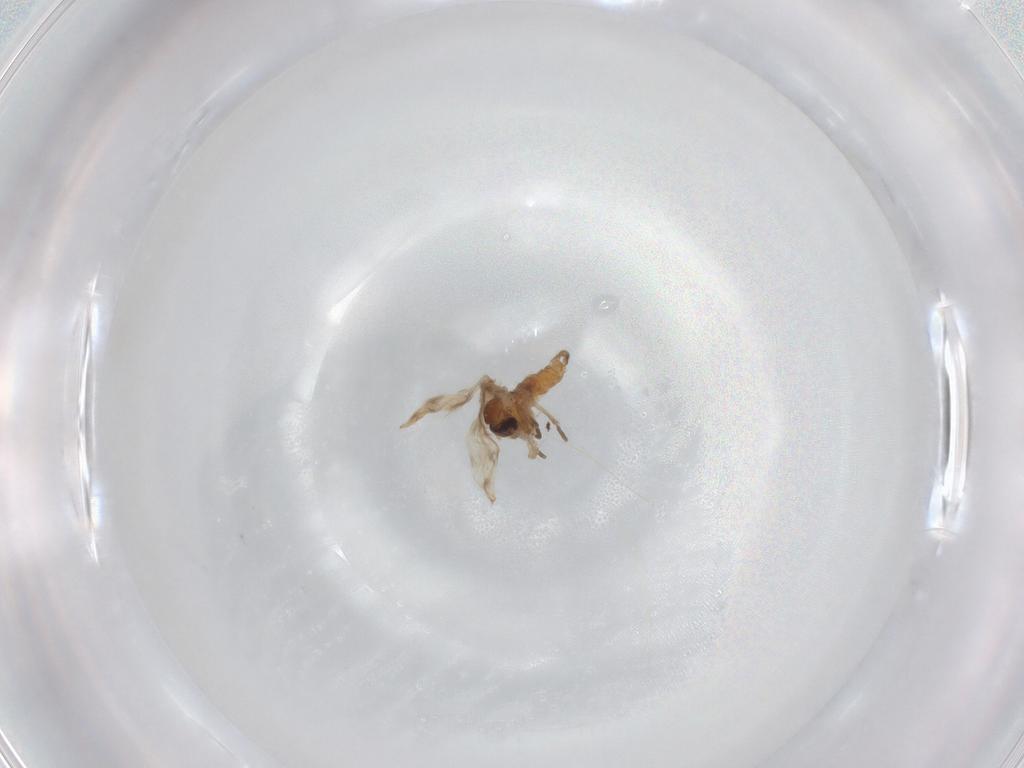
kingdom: Animalia
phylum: Arthropoda
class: Insecta
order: Diptera
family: Psychodidae
